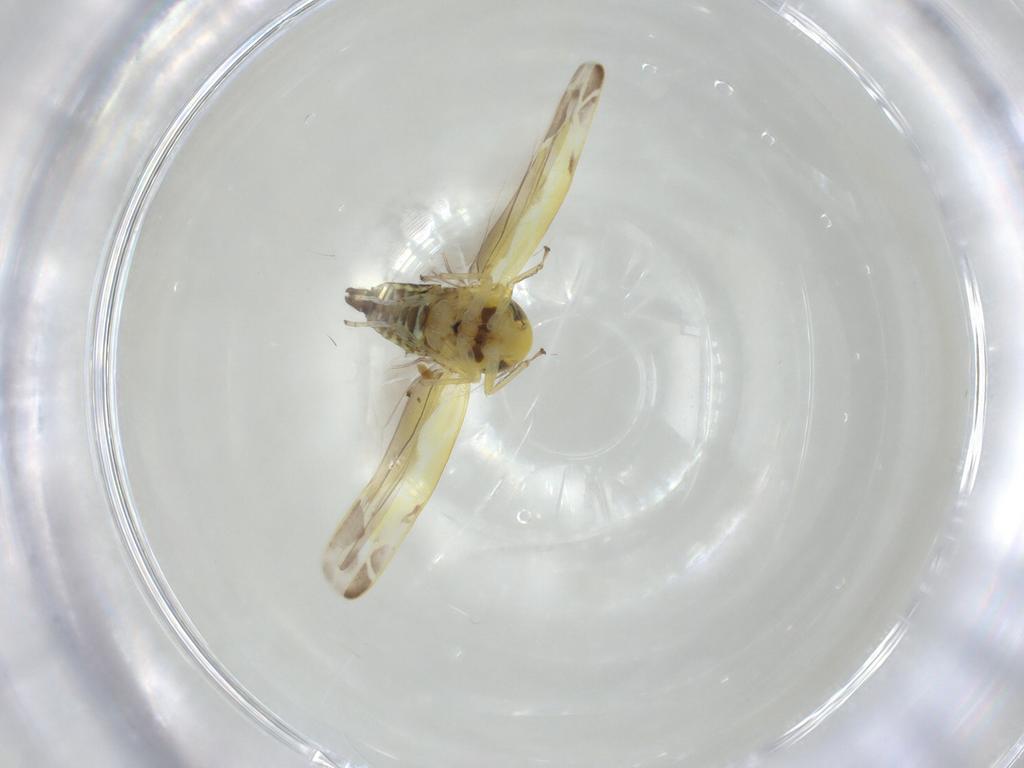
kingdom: Animalia
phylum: Arthropoda
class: Insecta
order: Hemiptera
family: Cicadellidae
